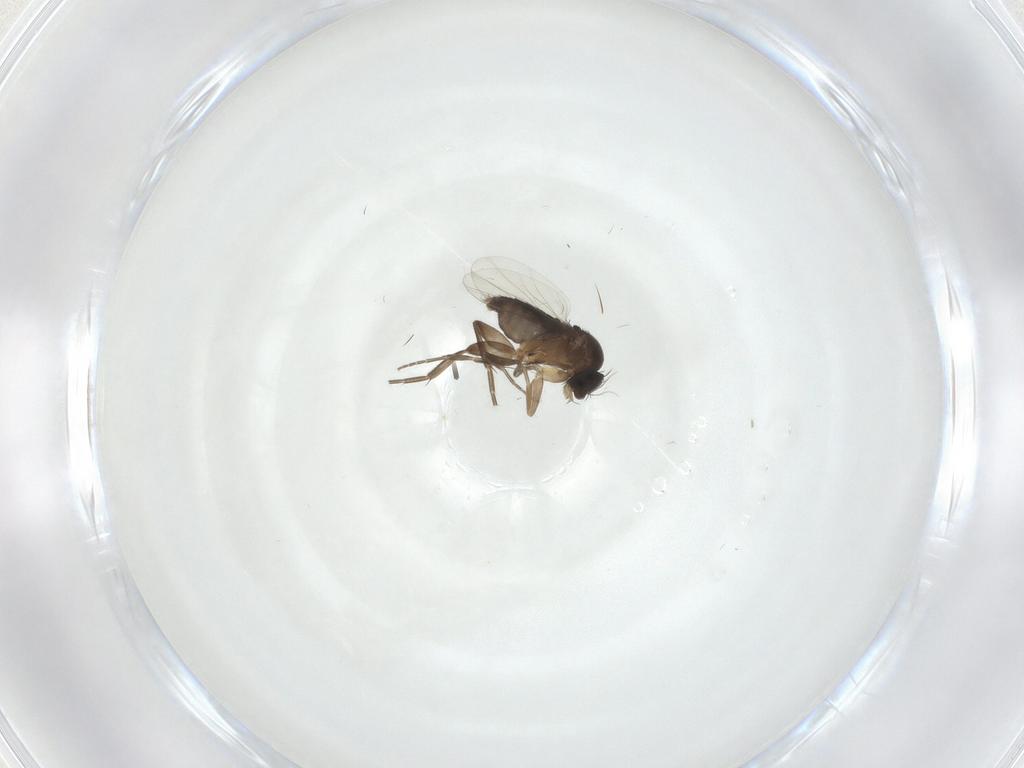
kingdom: Animalia
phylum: Arthropoda
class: Insecta
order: Diptera
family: Phoridae
